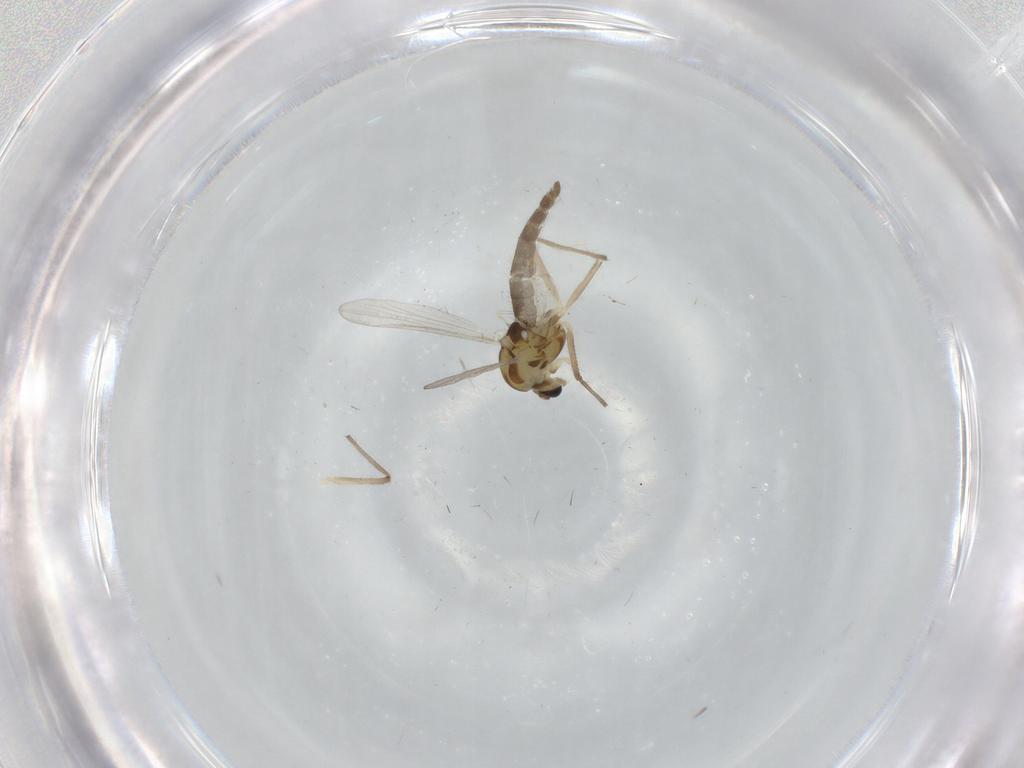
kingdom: Animalia
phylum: Arthropoda
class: Insecta
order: Diptera
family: Chironomidae
